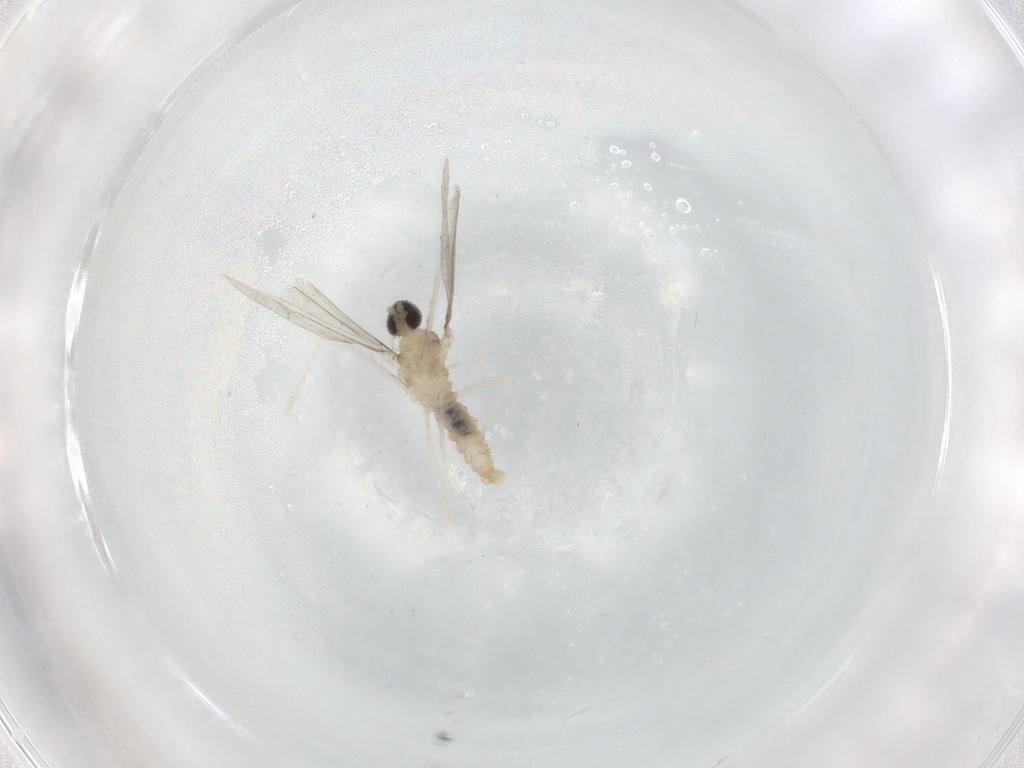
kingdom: Animalia
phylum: Arthropoda
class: Insecta
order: Diptera
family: Cecidomyiidae
